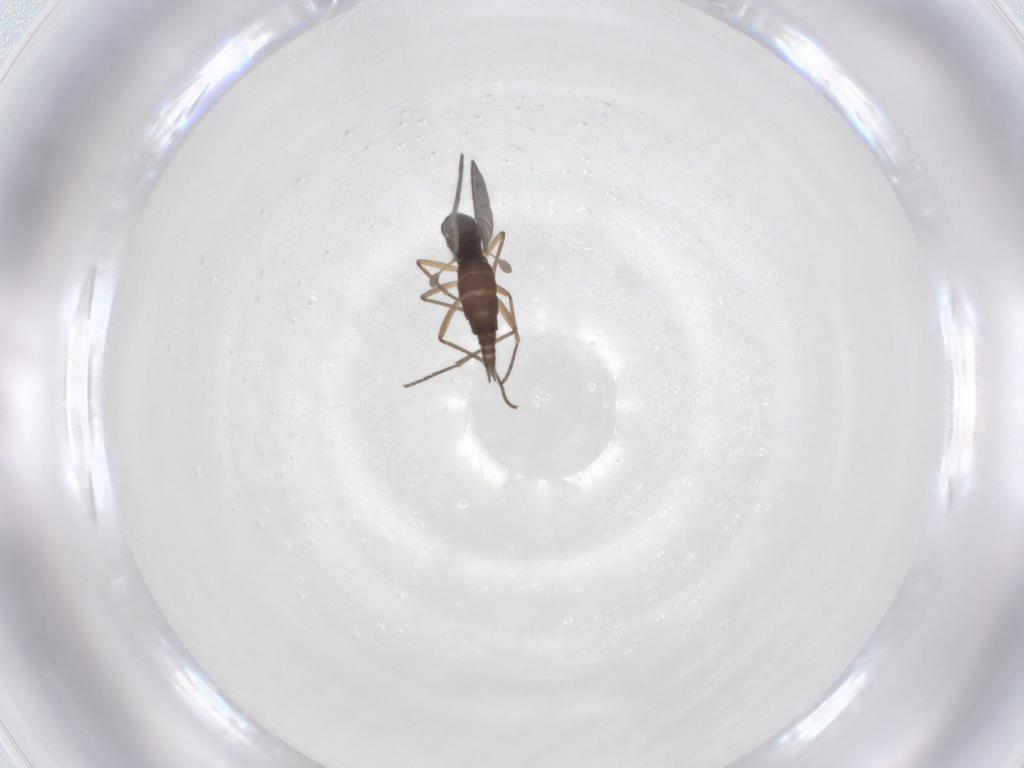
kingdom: Animalia
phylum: Arthropoda
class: Insecta
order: Diptera
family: Sciaridae
